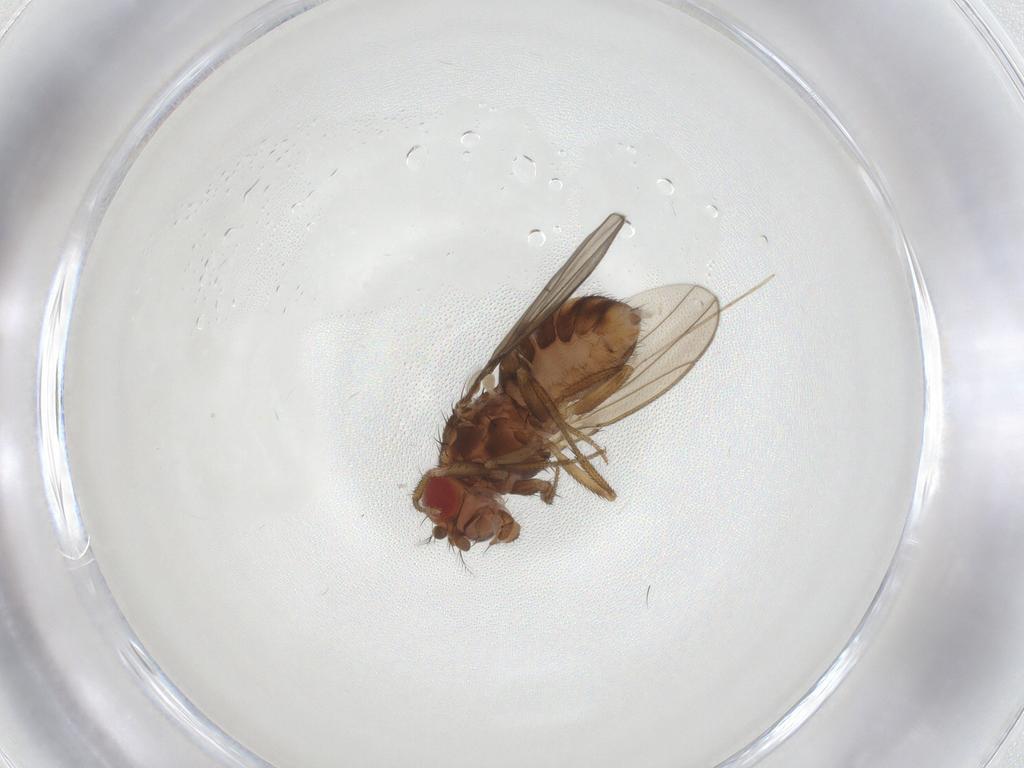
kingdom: Animalia
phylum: Arthropoda
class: Insecta
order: Diptera
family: Drosophilidae
